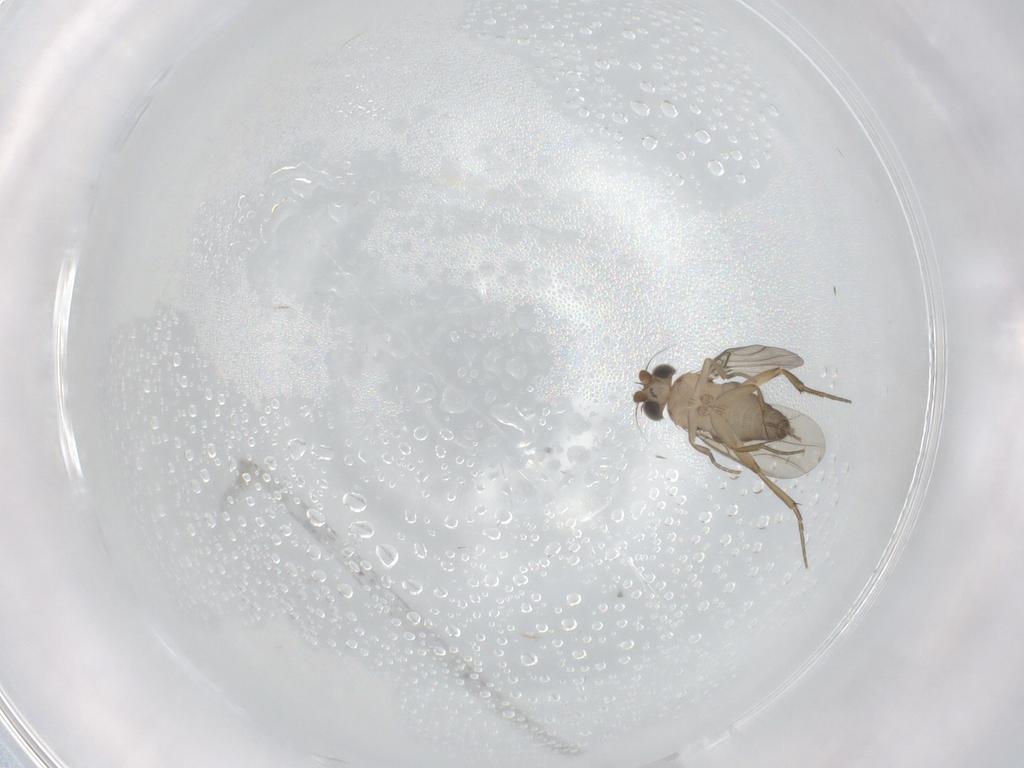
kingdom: Animalia
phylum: Arthropoda
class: Insecta
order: Diptera
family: Phoridae
